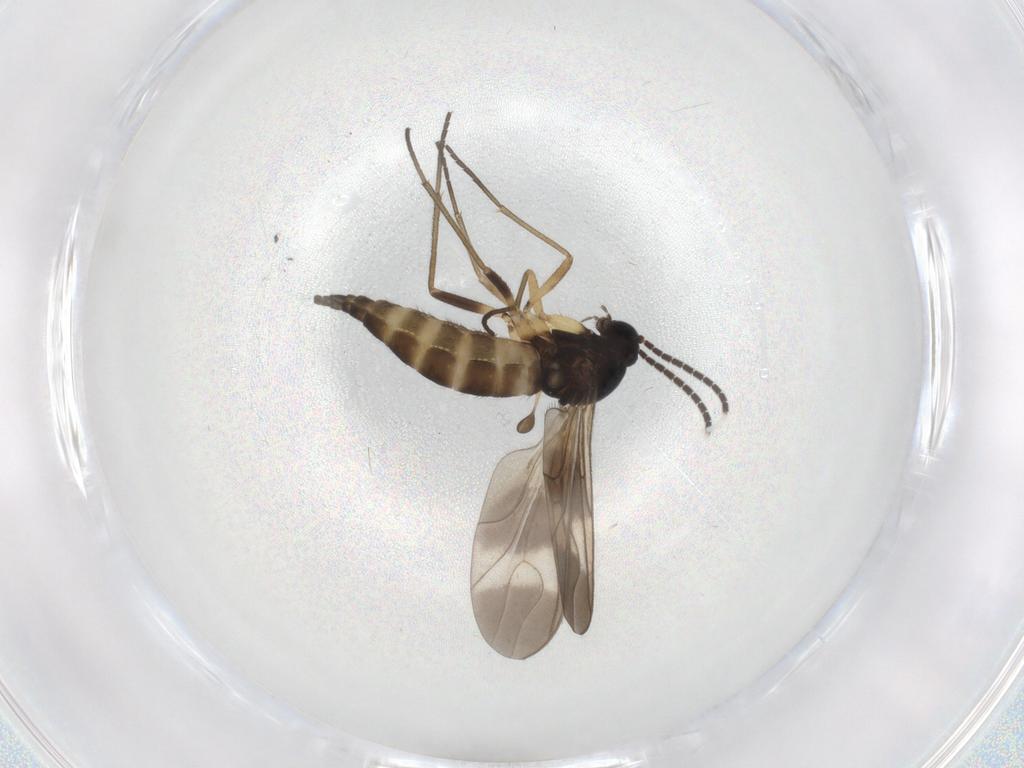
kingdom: Animalia
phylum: Arthropoda
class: Insecta
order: Diptera
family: Sciaridae
